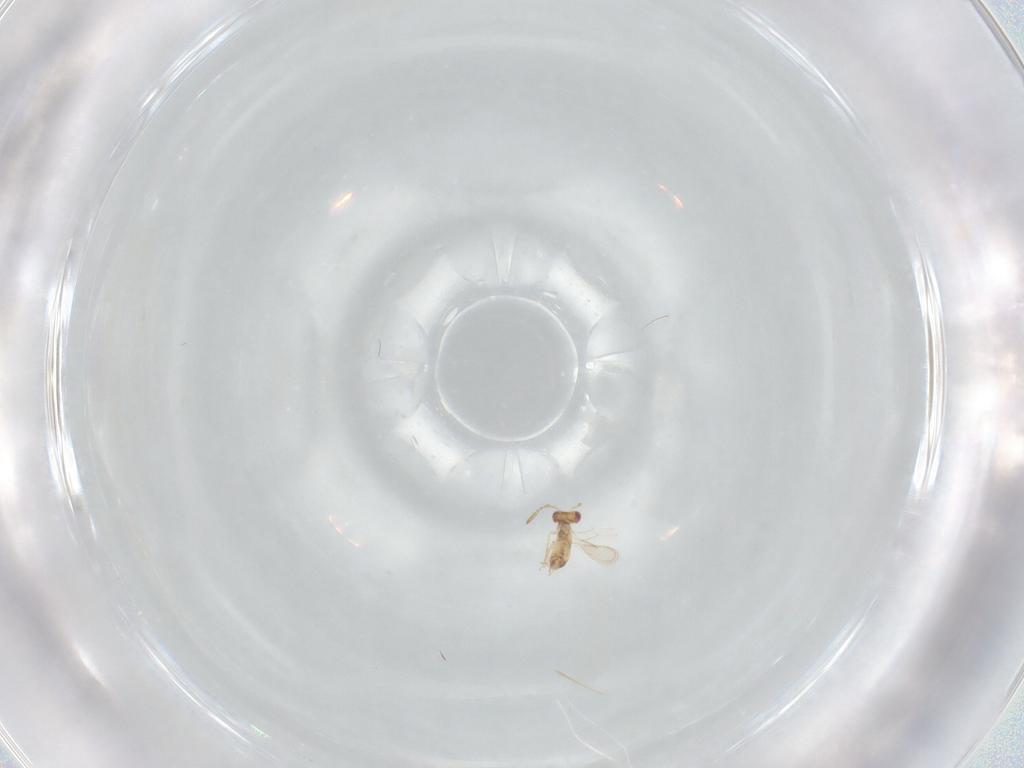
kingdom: Animalia
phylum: Arthropoda
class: Insecta
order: Hymenoptera
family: Aphelinidae
